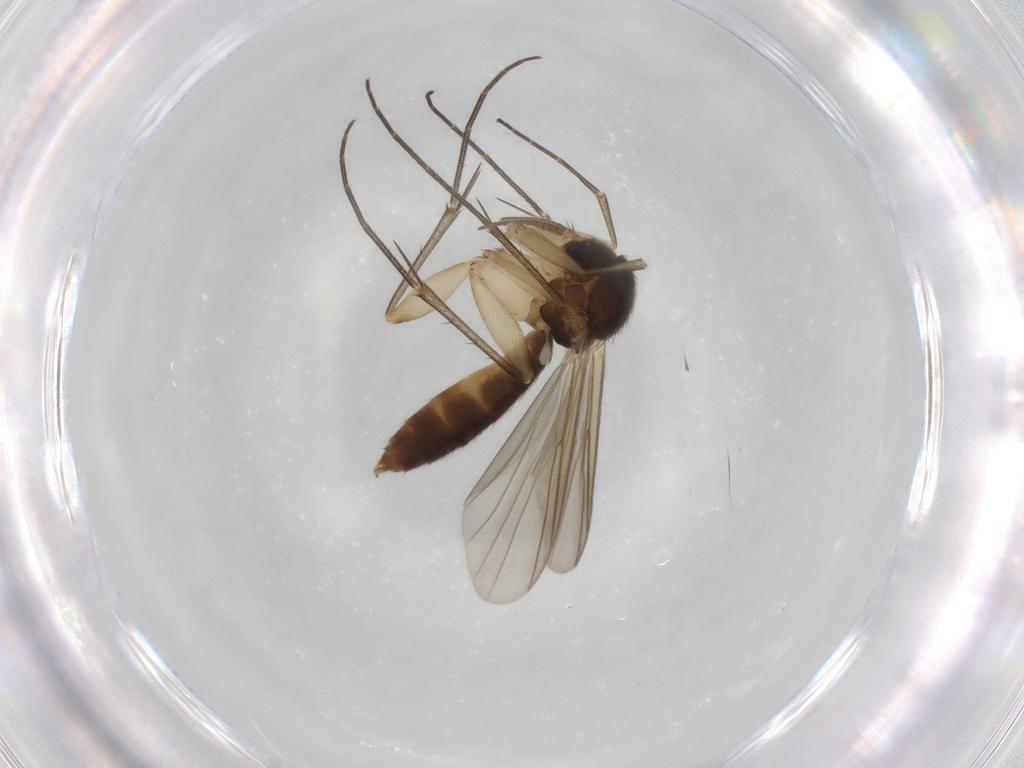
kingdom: Animalia
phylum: Arthropoda
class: Insecta
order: Diptera
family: Mycetophilidae
